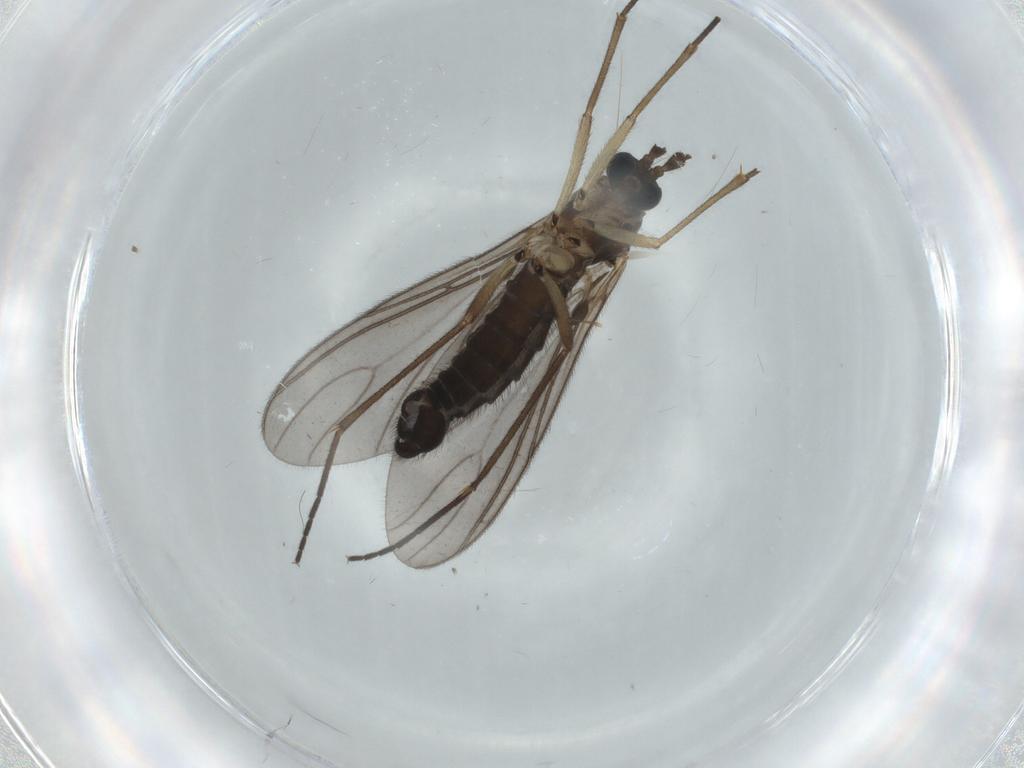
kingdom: Animalia
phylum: Arthropoda
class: Insecta
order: Diptera
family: Sciaridae
